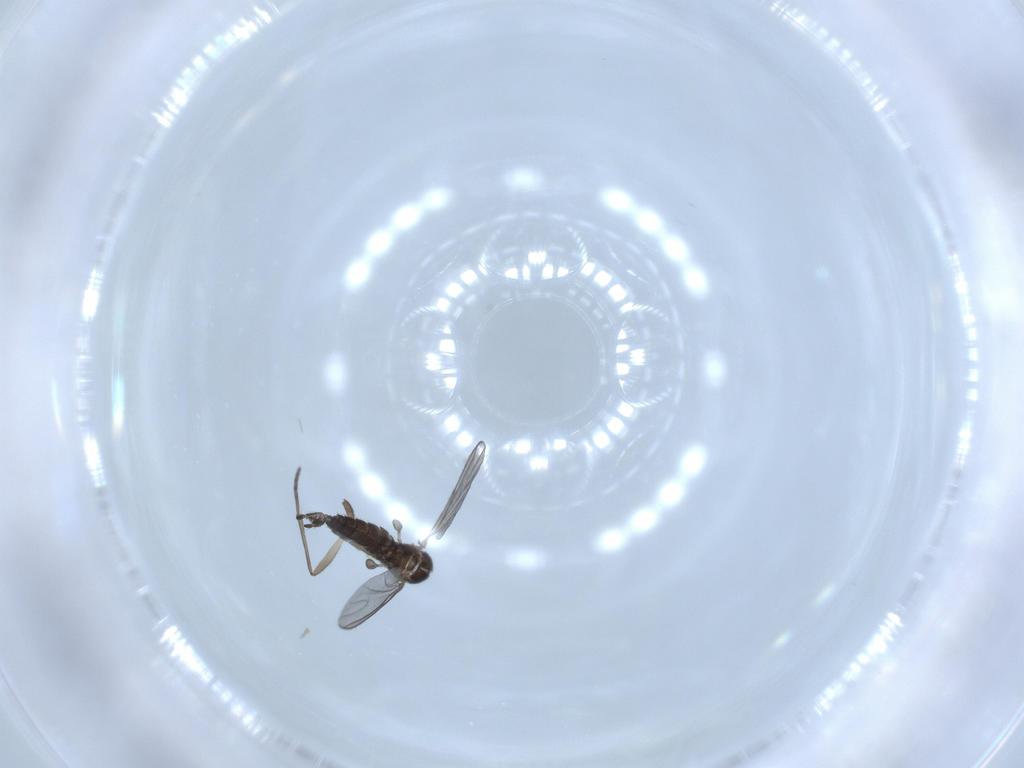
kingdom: Animalia
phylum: Arthropoda
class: Insecta
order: Diptera
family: Sciaridae
